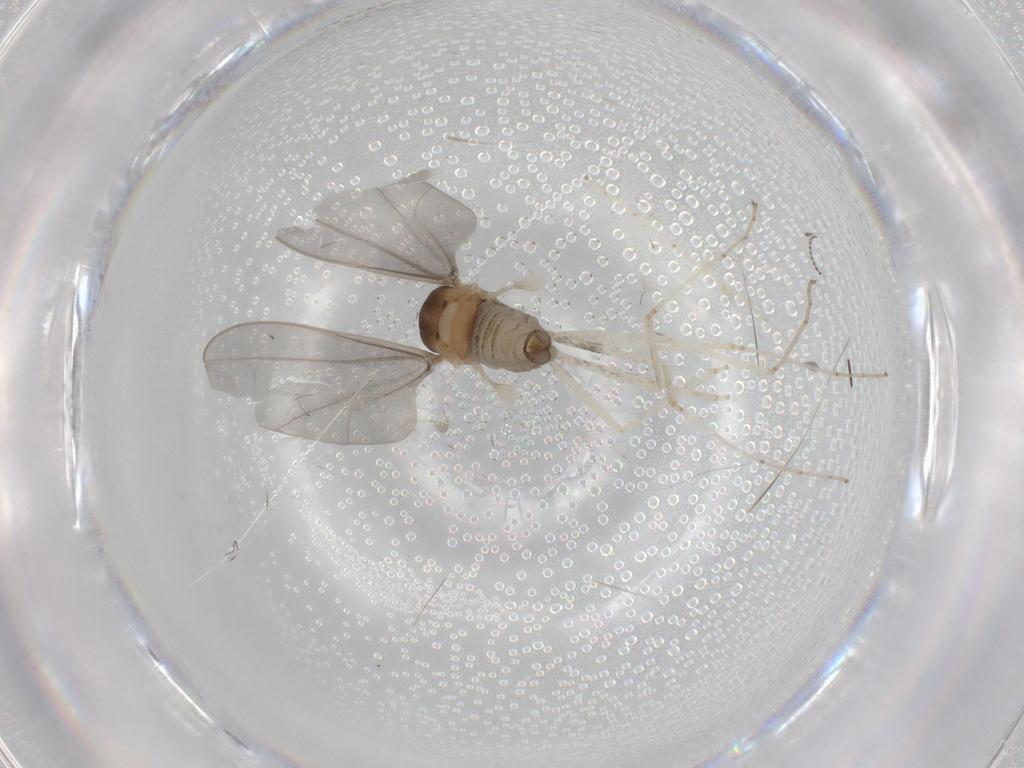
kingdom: Animalia
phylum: Arthropoda
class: Insecta
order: Diptera
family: Cecidomyiidae
